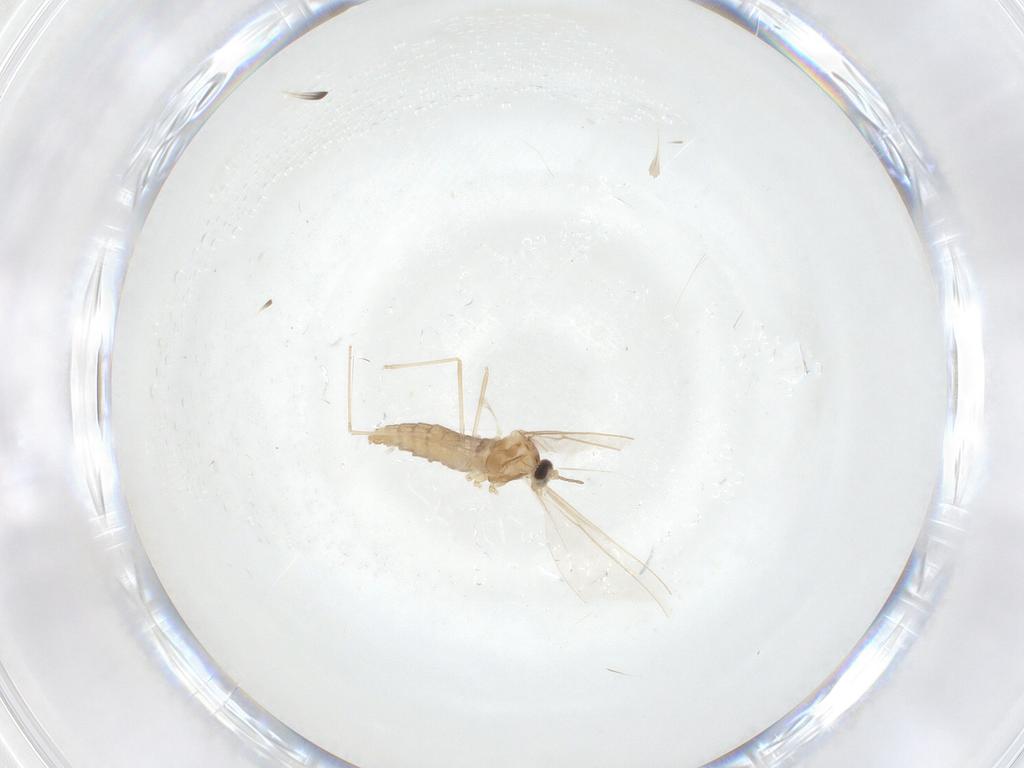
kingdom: Animalia
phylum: Arthropoda
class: Insecta
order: Diptera
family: Cecidomyiidae
